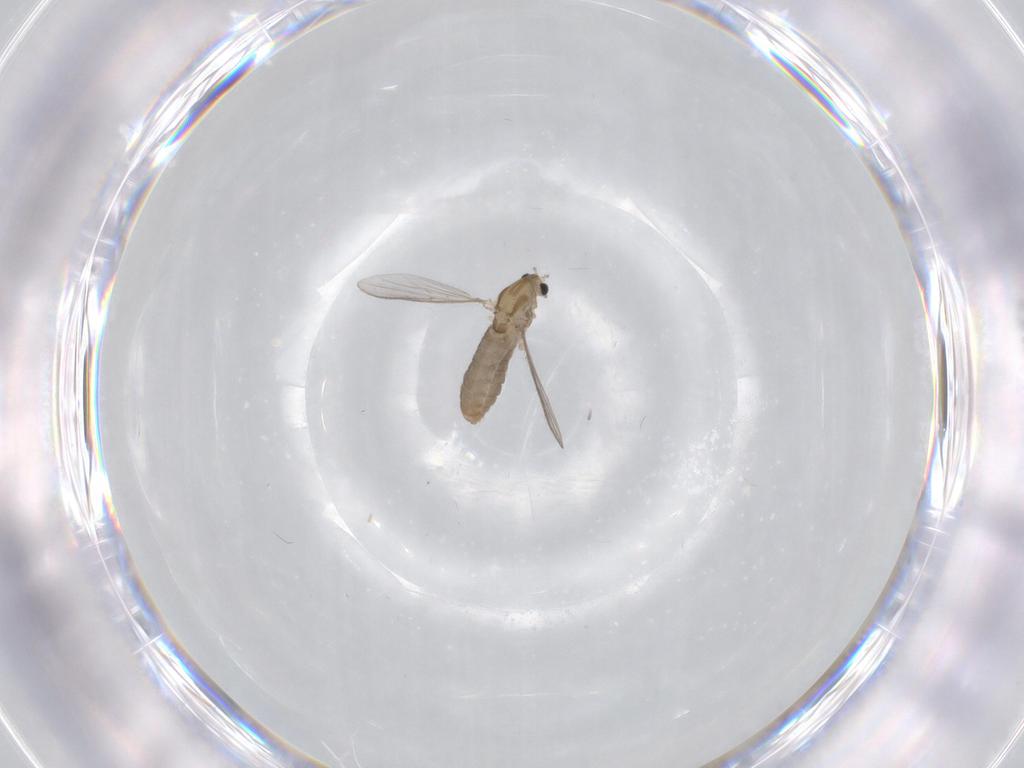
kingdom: Animalia
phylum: Arthropoda
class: Insecta
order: Diptera
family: Chironomidae
